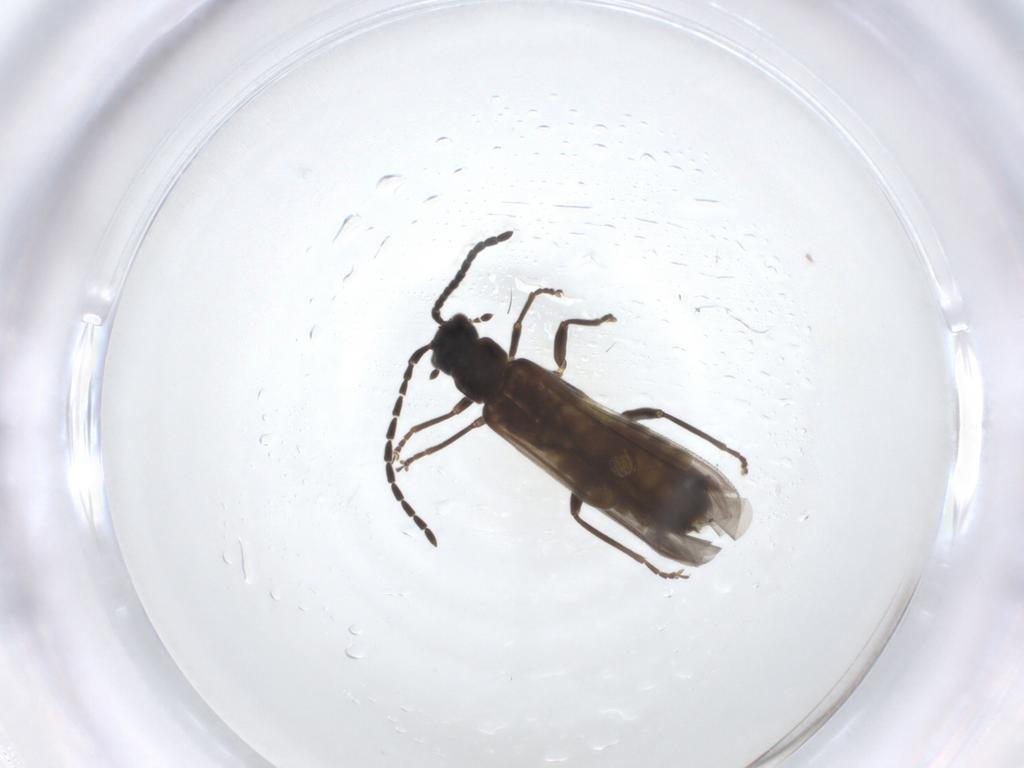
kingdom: Animalia
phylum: Arthropoda
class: Insecta
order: Coleoptera
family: Cantharidae
